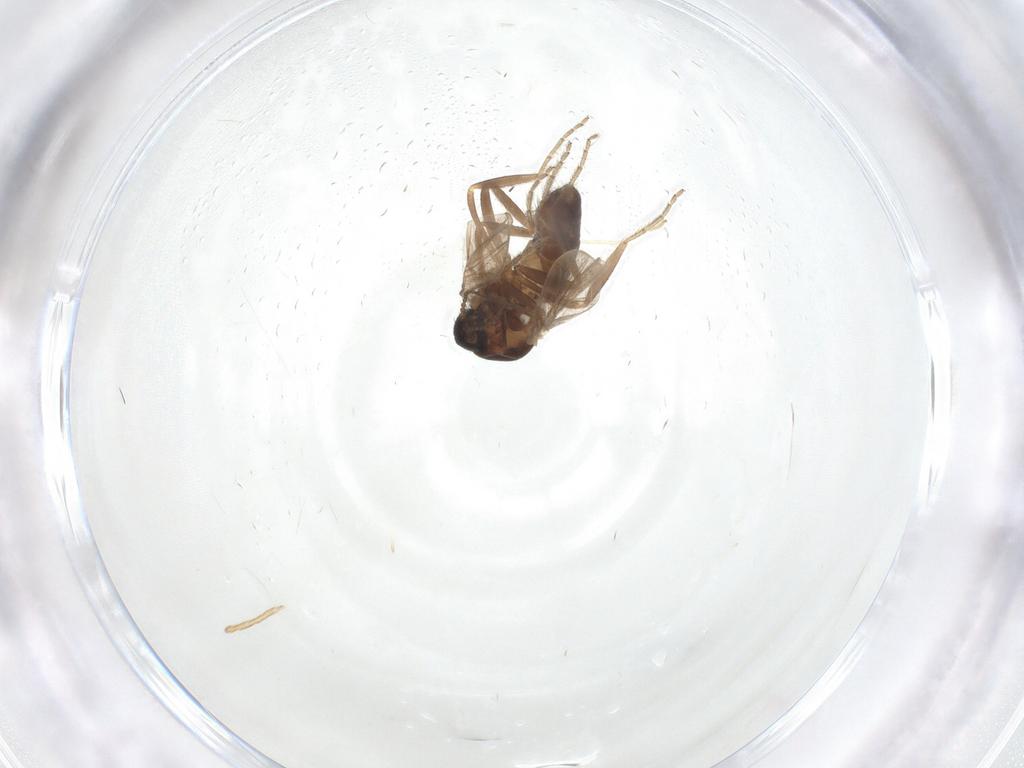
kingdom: Animalia
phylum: Arthropoda
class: Insecta
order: Diptera
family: Ceratopogonidae
